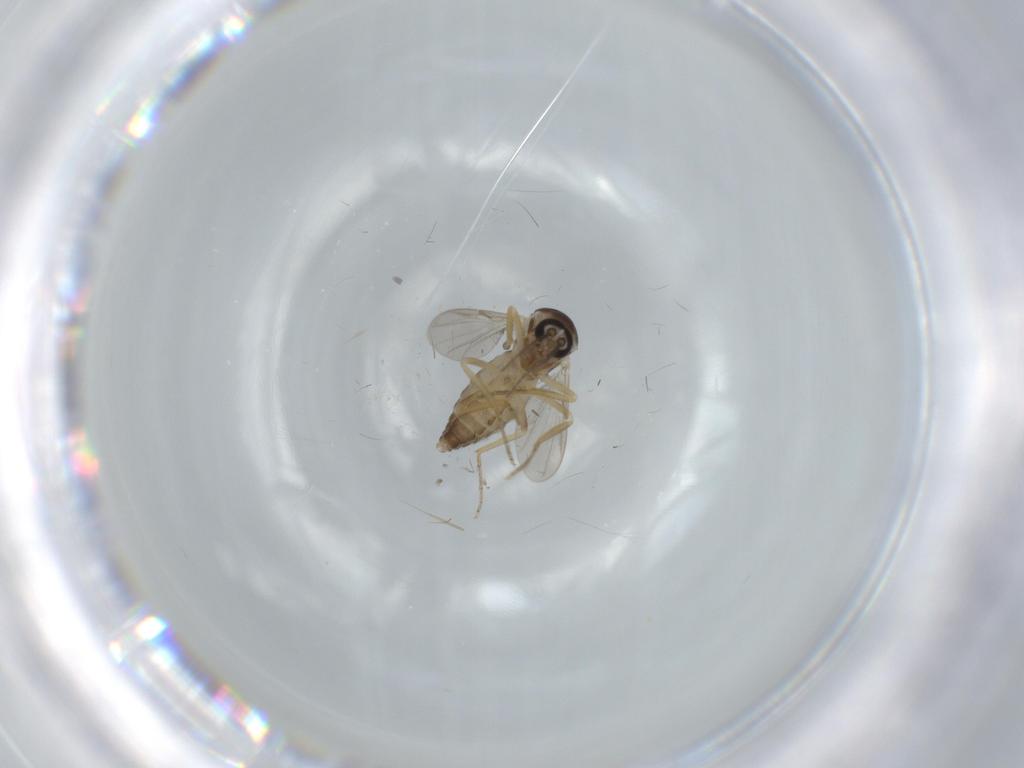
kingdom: Animalia
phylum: Arthropoda
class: Insecta
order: Diptera
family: Ceratopogonidae
